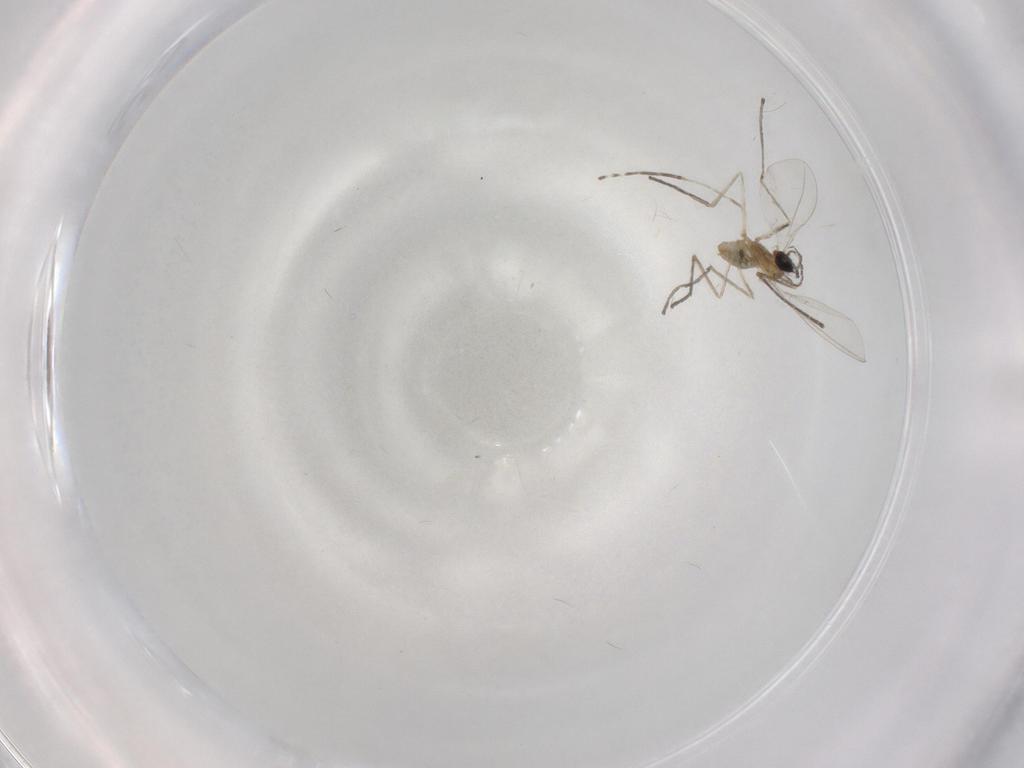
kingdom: Animalia
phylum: Arthropoda
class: Insecta
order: Diptera
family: Cecidomyiidae
